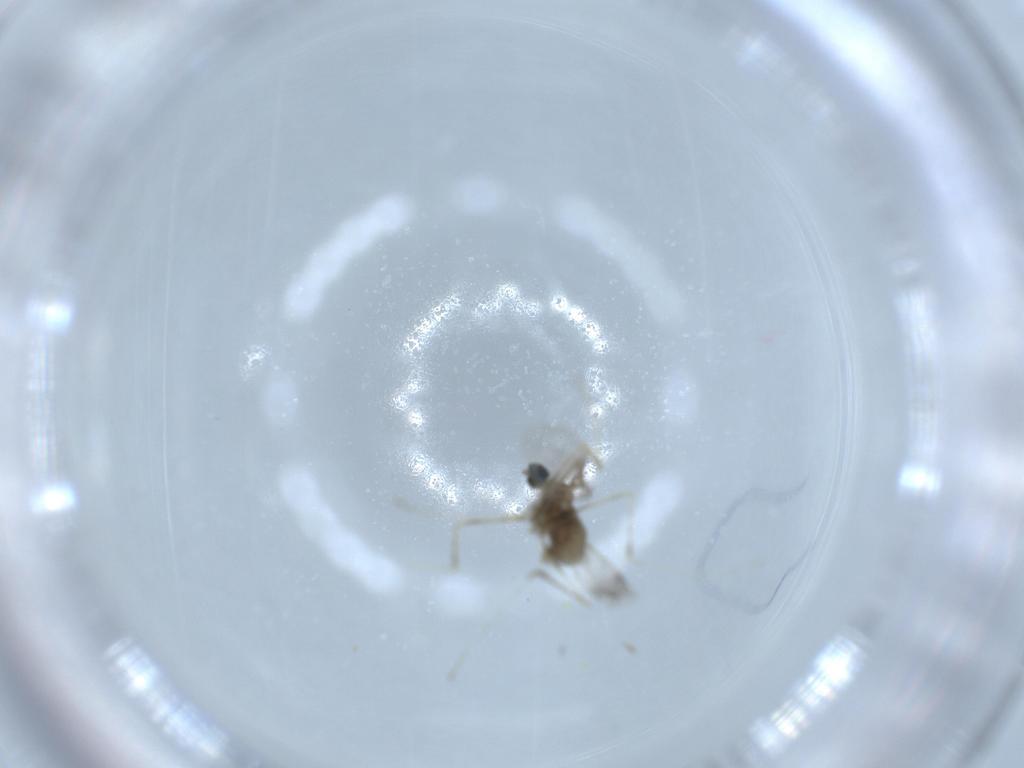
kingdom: Animalia
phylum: Arthropoda
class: Insecta
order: Diptera
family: Cecidomyiidae
